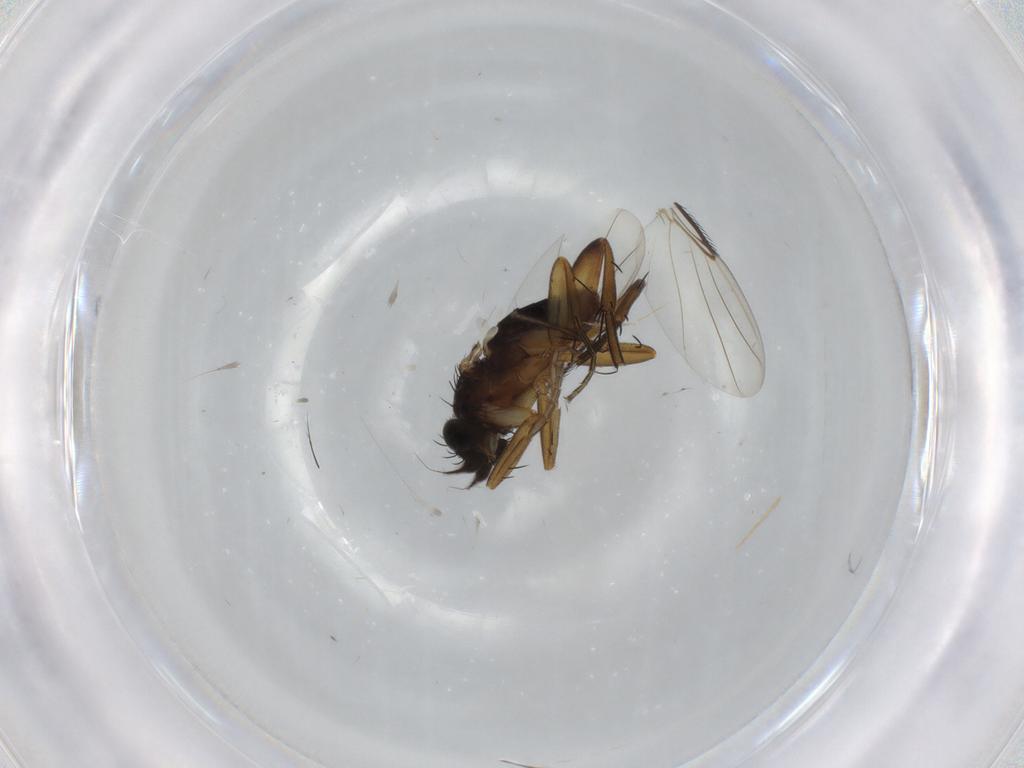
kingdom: Animalia
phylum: Arthropoda
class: Insecta
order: Diptera
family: Phoridae
